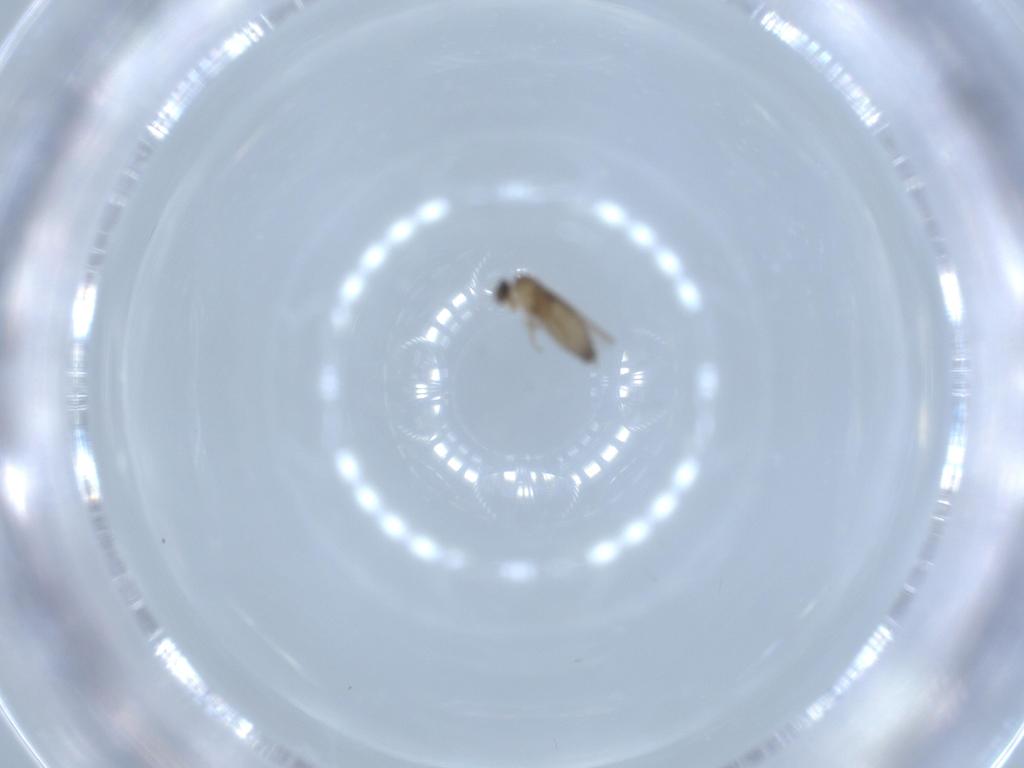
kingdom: Animalia
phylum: Arthropoda
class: Insecta
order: Diptera
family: Phoridae
